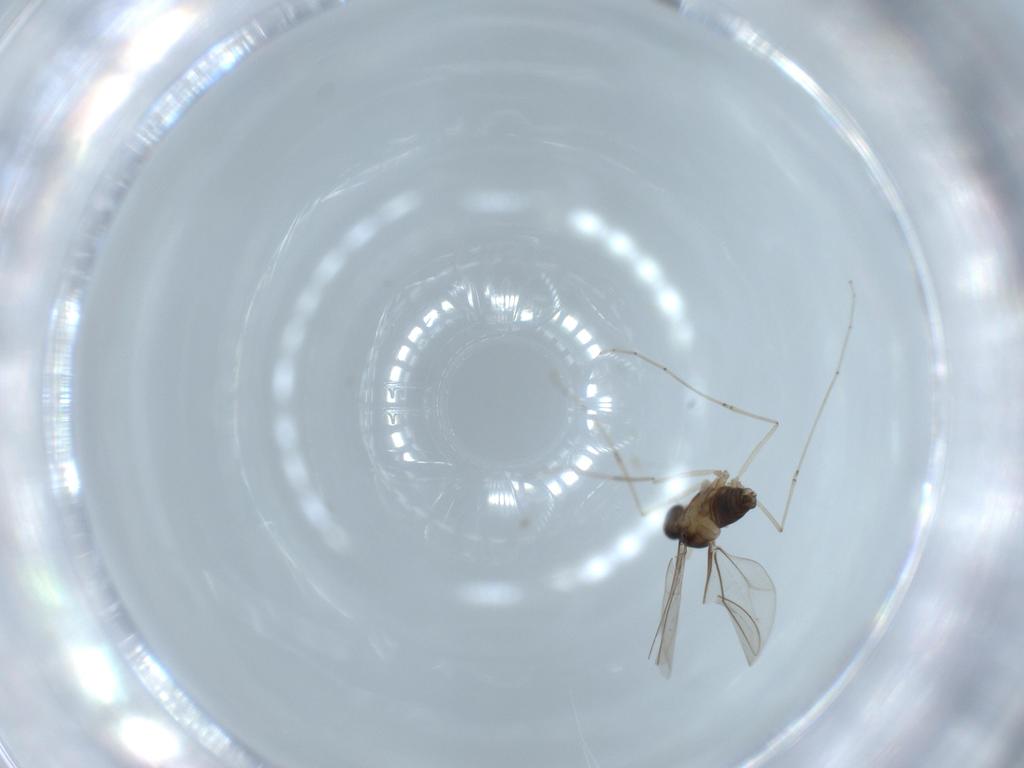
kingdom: Animalia
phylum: Arthropoda
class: Insecta
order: Diptera
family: Cecidomyiidae
